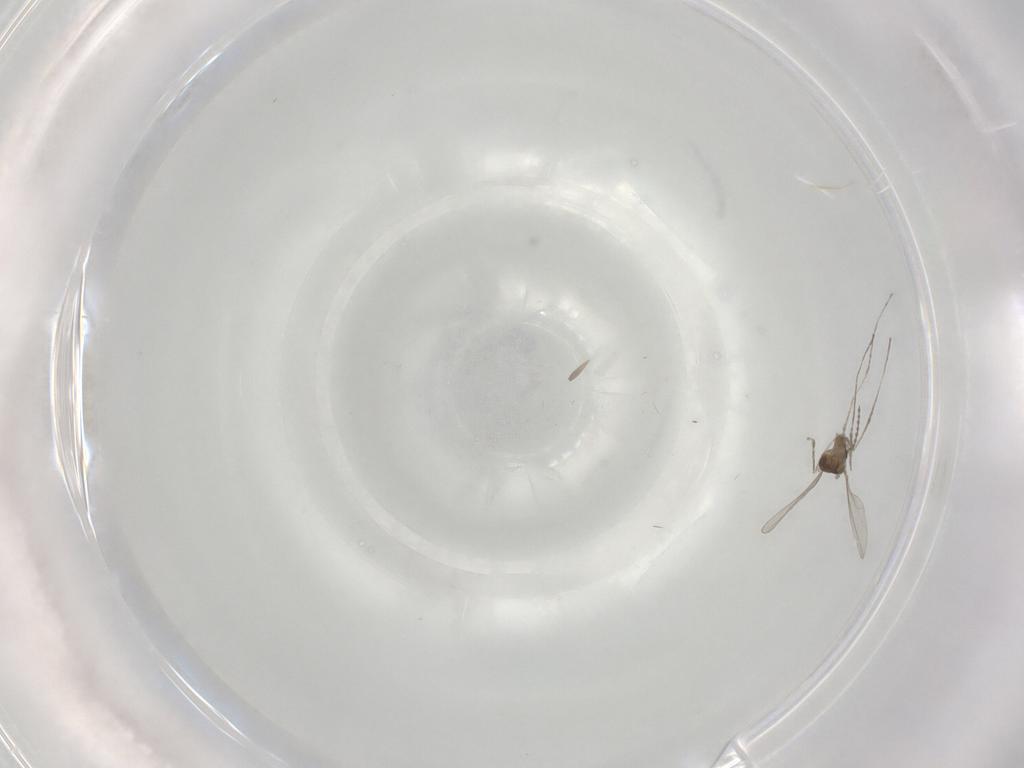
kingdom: Animalia
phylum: Arthropoda
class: Insecta
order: Diptera
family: Cecidomyiidae
